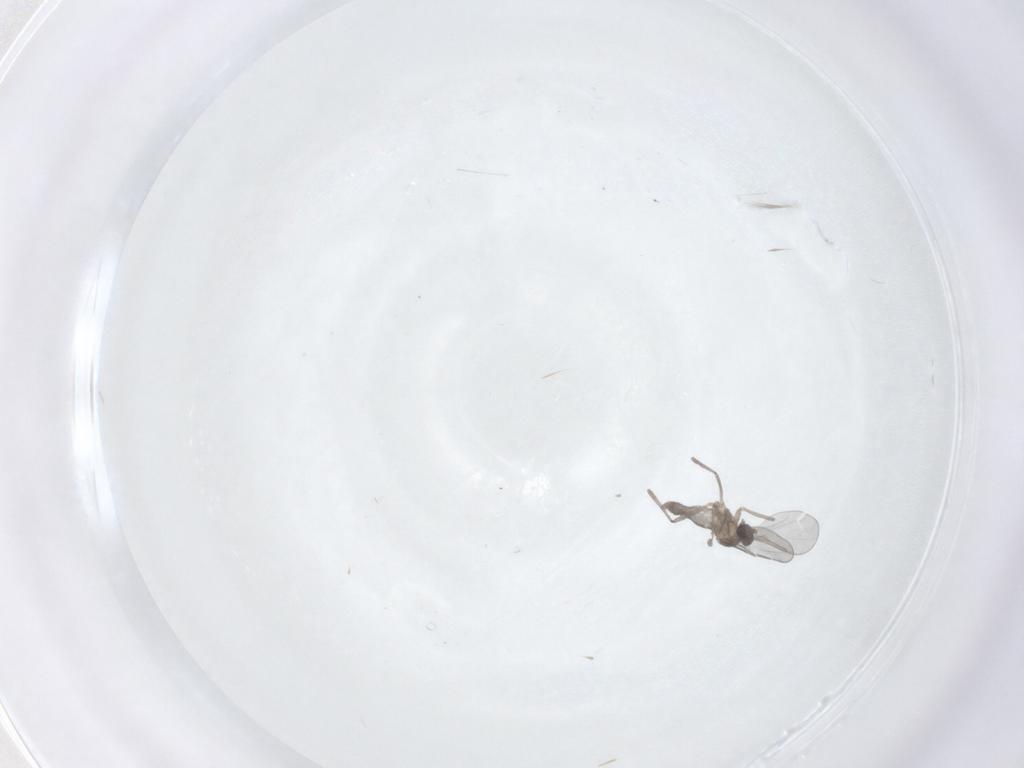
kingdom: Animalia
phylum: Arthropoda
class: Insecta
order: Diptera
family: Cecidomyiidae
